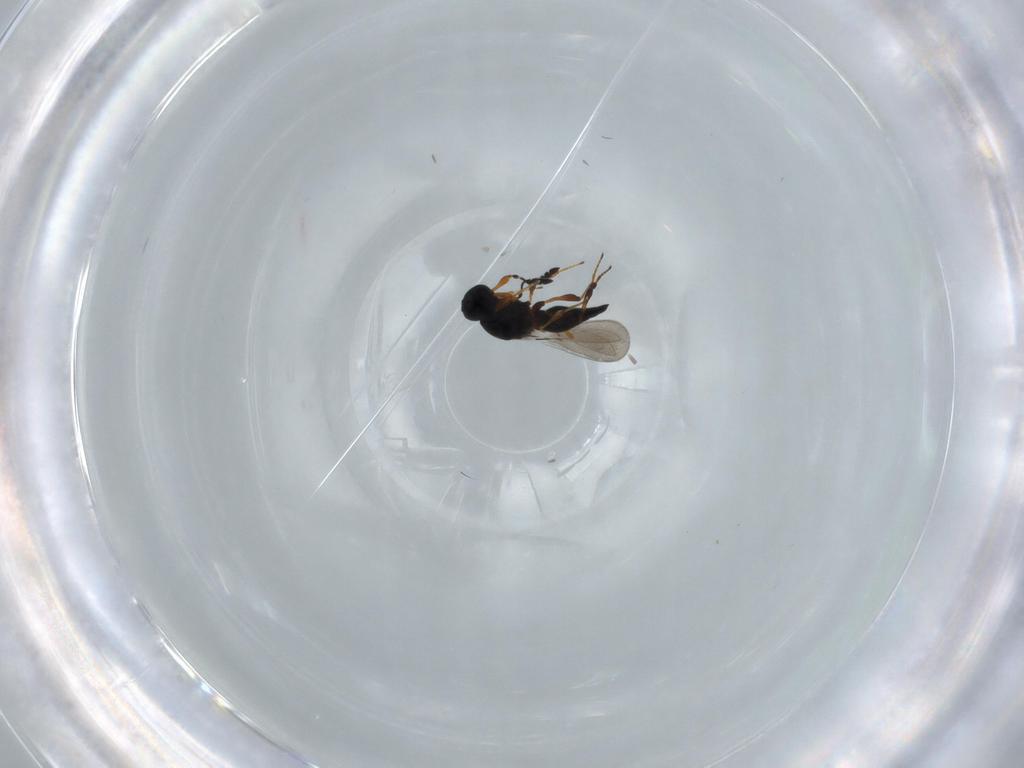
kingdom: Animalia
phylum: Arthropoda
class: Insecta
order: Hymenoptera
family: Platygastridae
